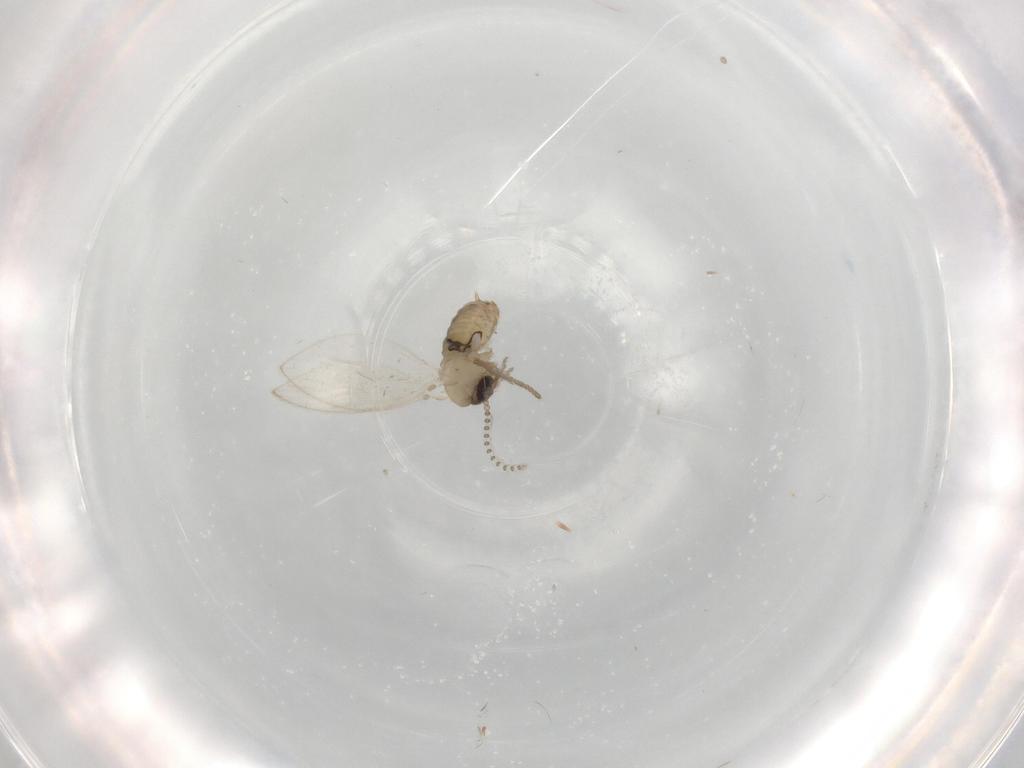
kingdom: Animalia
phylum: Arthropoda
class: Insecta
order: Diptera
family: Psychodidae
